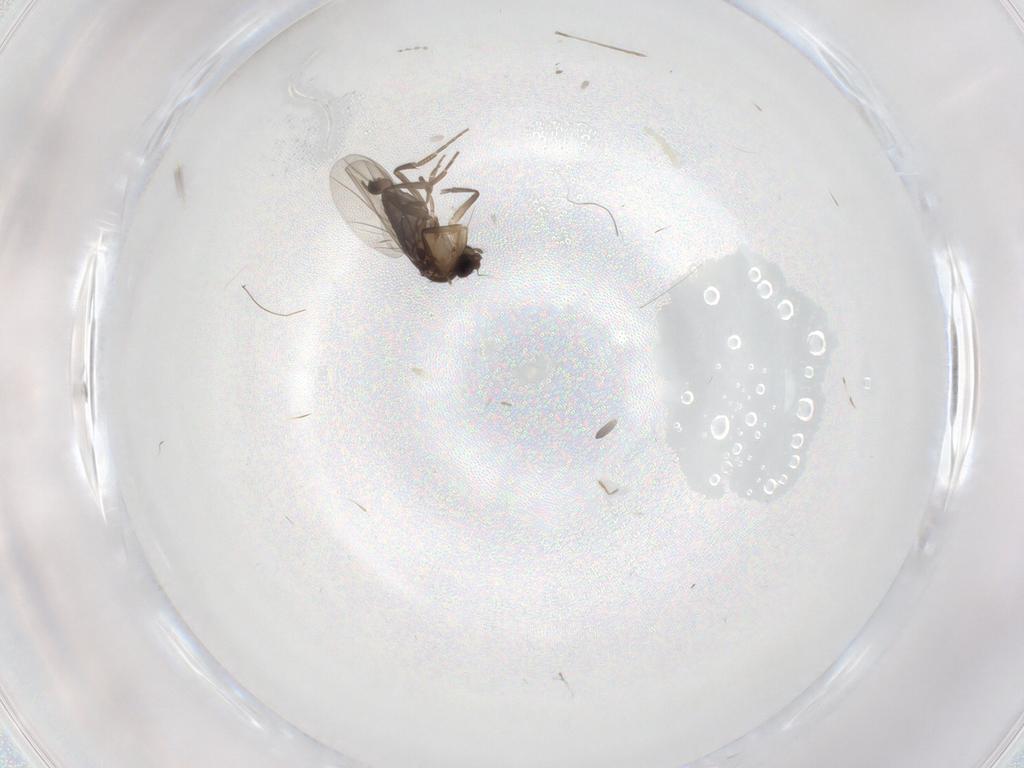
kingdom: Animalia
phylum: Arthropoda
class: Insecta
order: Diptera
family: Phoridae
